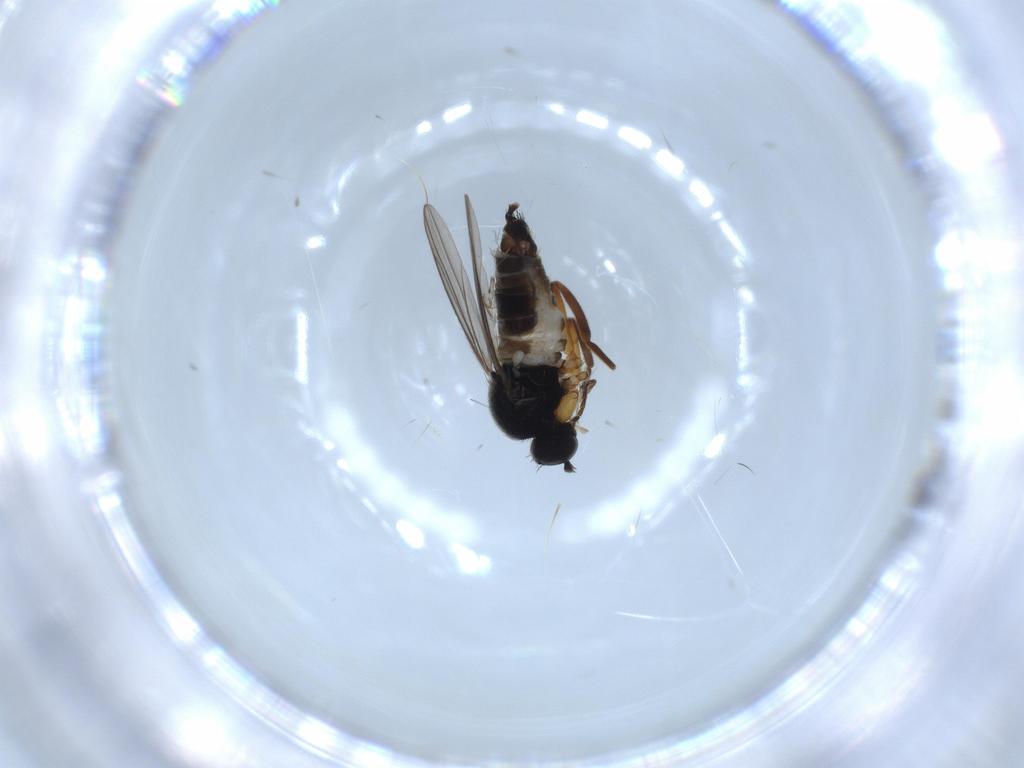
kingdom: Animalia
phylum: Arthropoda
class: Insecta
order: Diptera
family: Hybotidae
